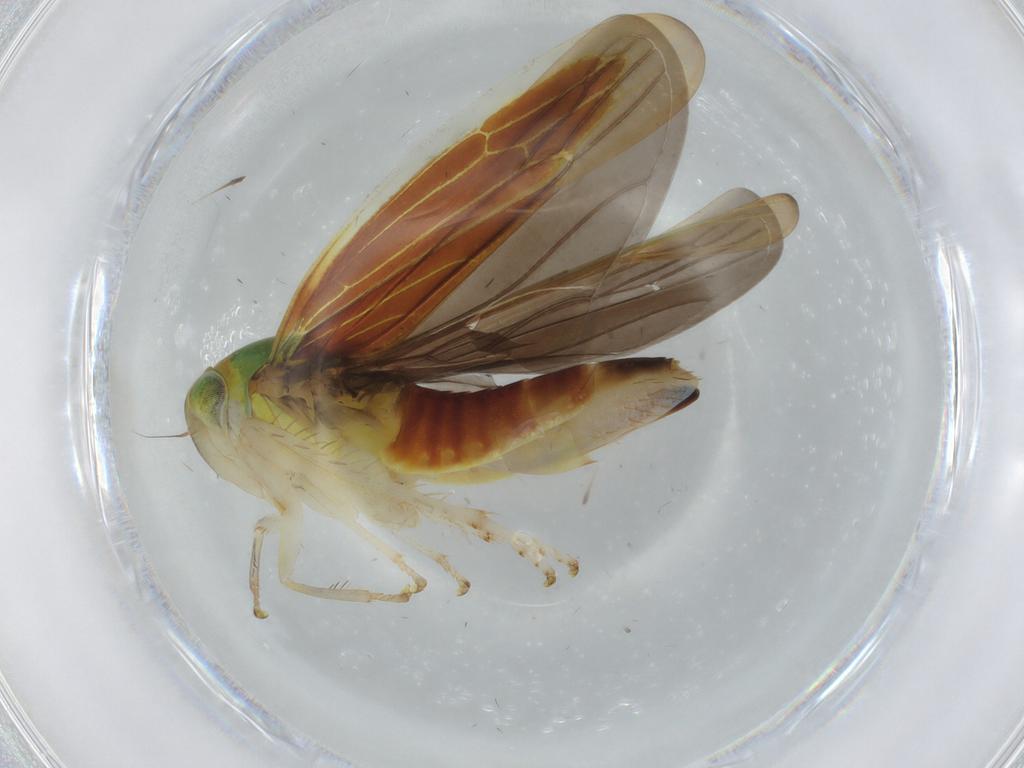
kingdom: Animalia
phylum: Arthropoda
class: Insecta
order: Hemiptera
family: Cicadellidae
